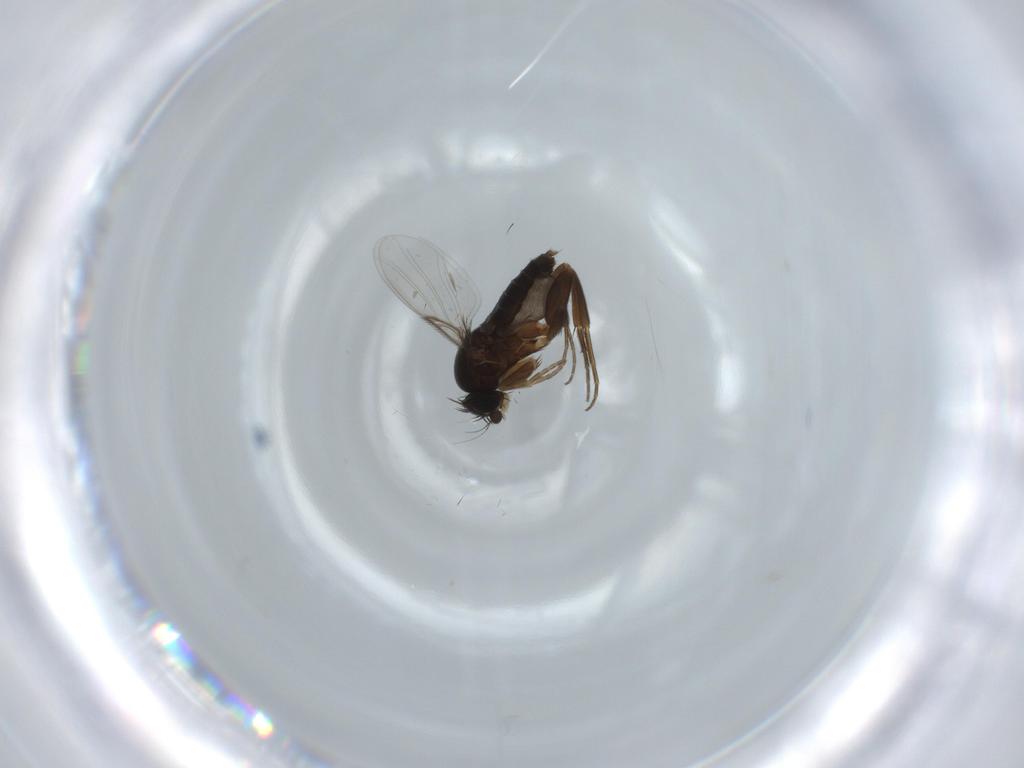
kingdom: Animalia
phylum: Arthropoda
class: Insecta
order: Diptera
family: Phoridae
